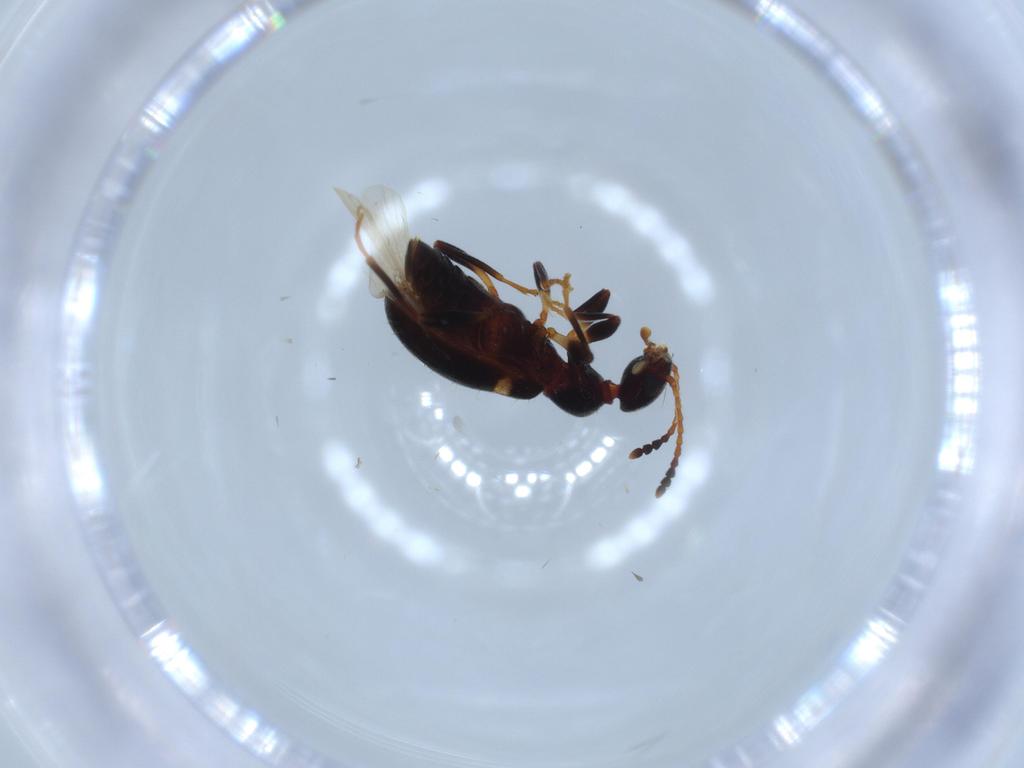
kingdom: Animalia
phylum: Arthropoda
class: Insecta
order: Coleoptera
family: Anthicidae
